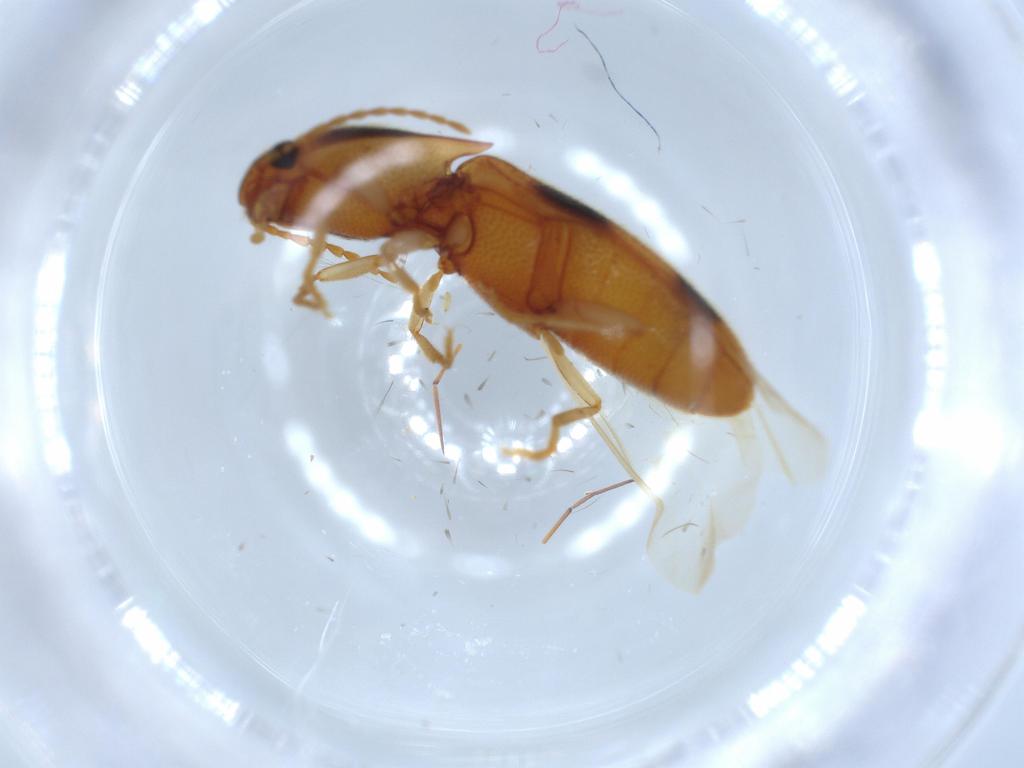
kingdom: Animalia
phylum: Arthropoda
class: Insecta
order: Coleoptera
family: Elateridae
